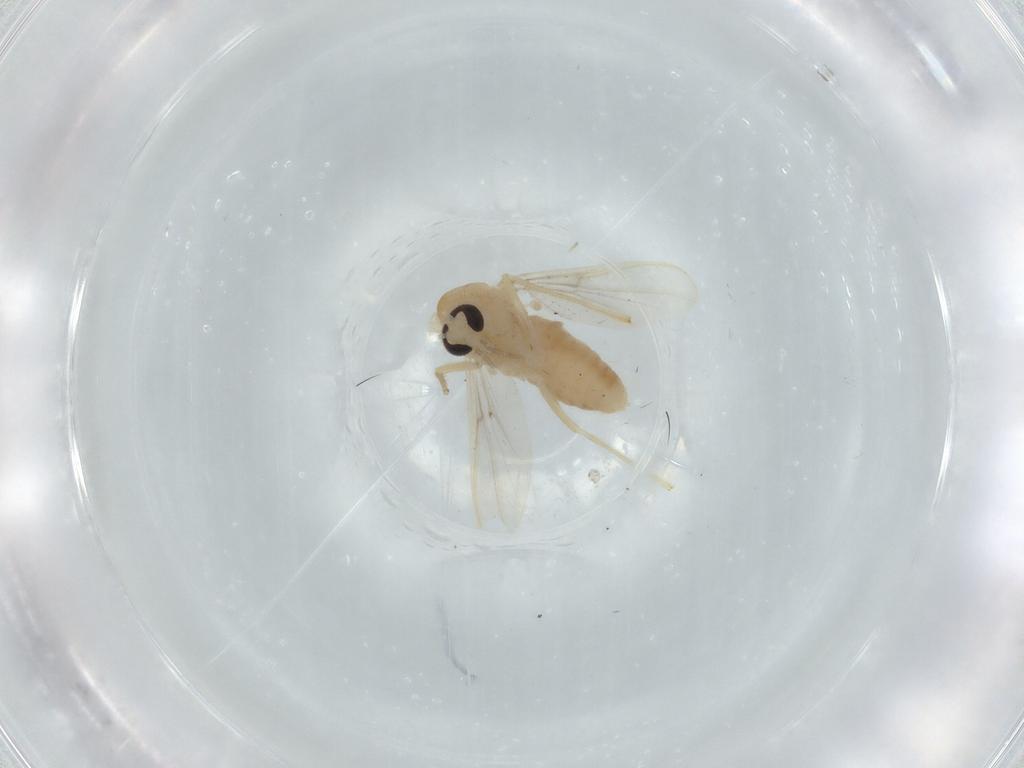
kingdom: Animalia
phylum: Arthropoda
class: Insecta
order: Diptera
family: Chironomidae
